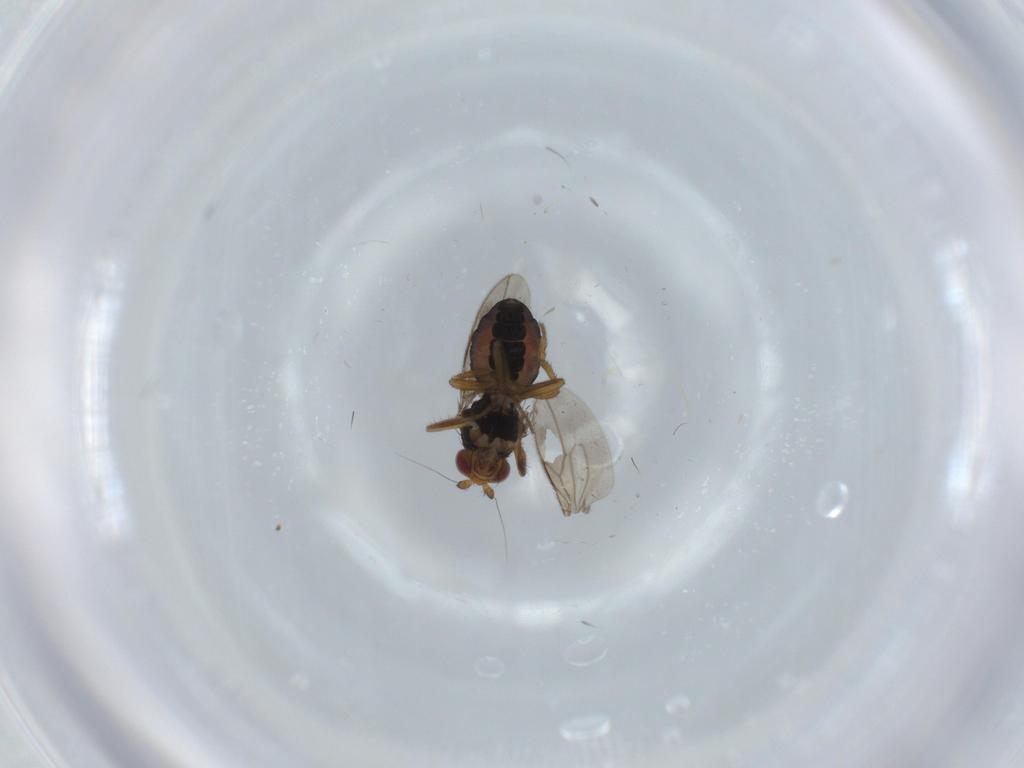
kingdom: Animalia
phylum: Arthropoda
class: Insecta
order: Diptera
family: Sphaeroceridae
